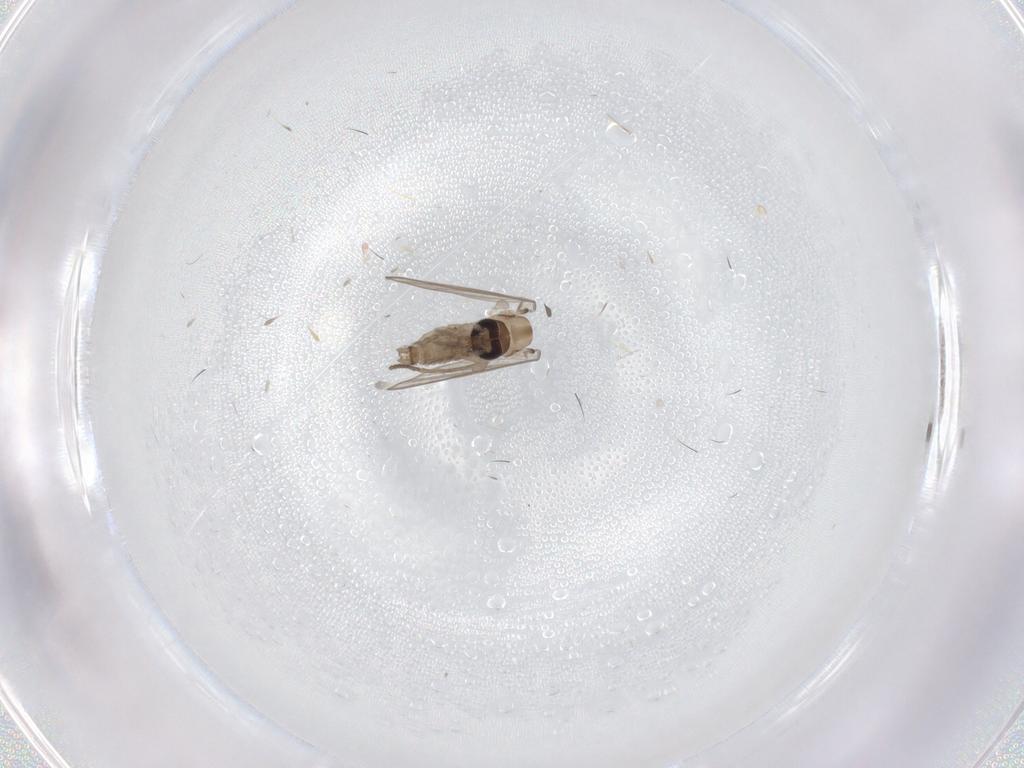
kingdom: Animalia
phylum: Arthropoda
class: Insecta
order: Diptera
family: Psychodidae
